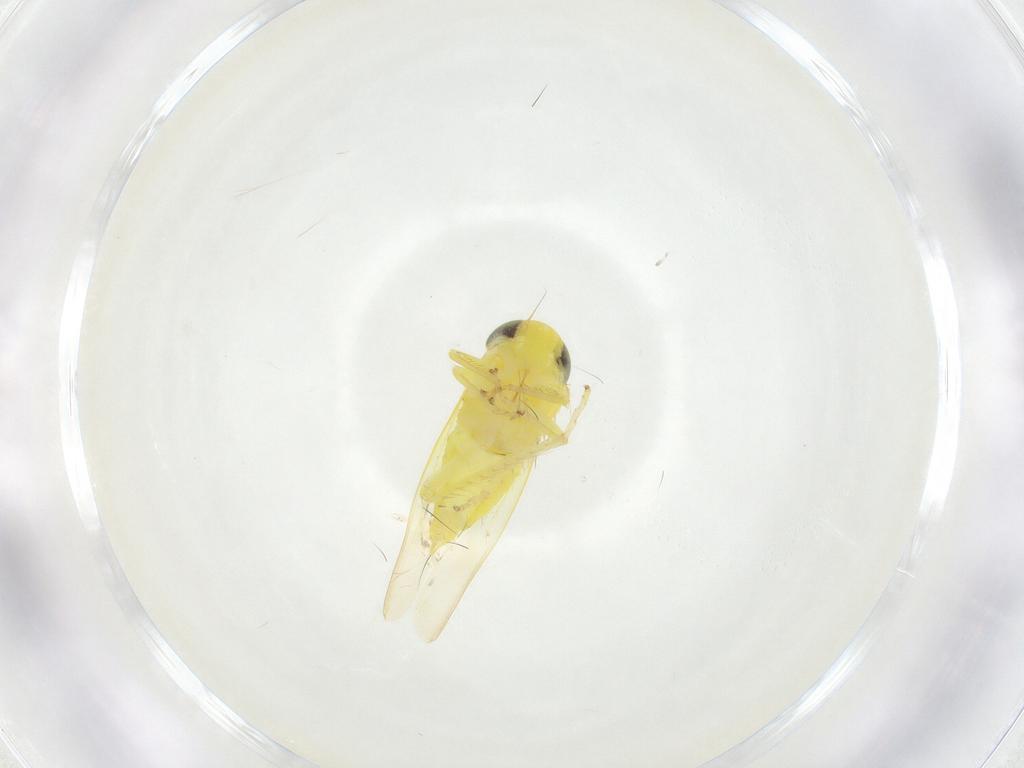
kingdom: Animalia
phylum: Arthropoda
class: Insecta
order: Hemiptera
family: Cicadellidae
